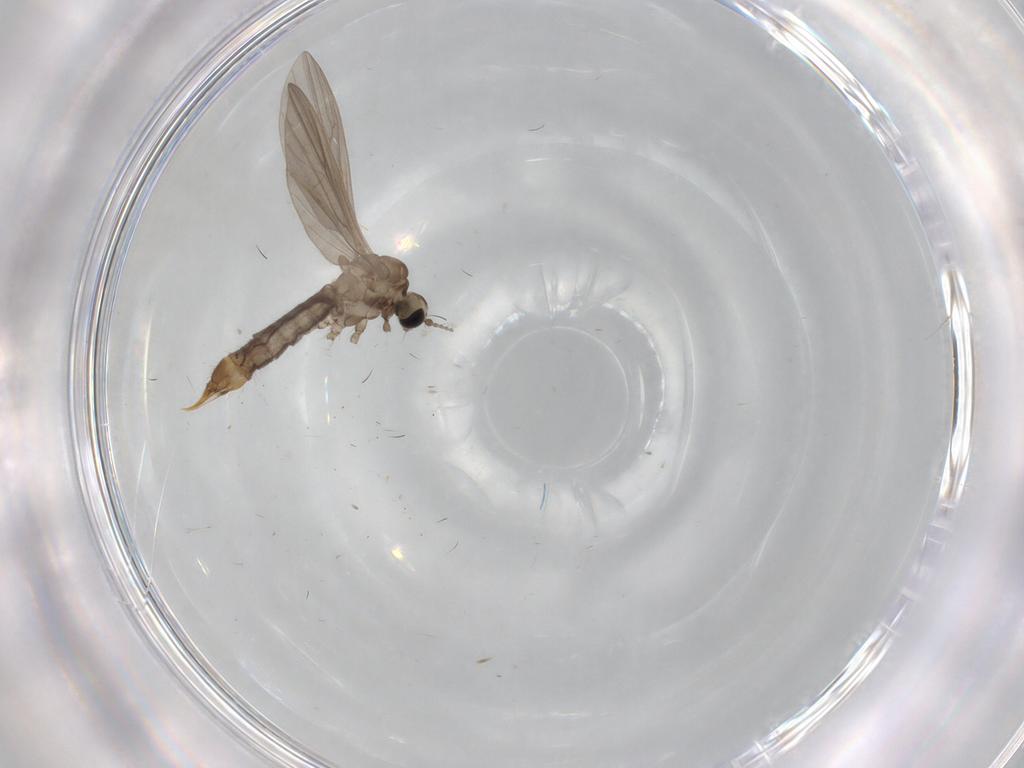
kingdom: Animalia
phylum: Arthropoda
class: Insecta
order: Diptera
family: Limoniidae
